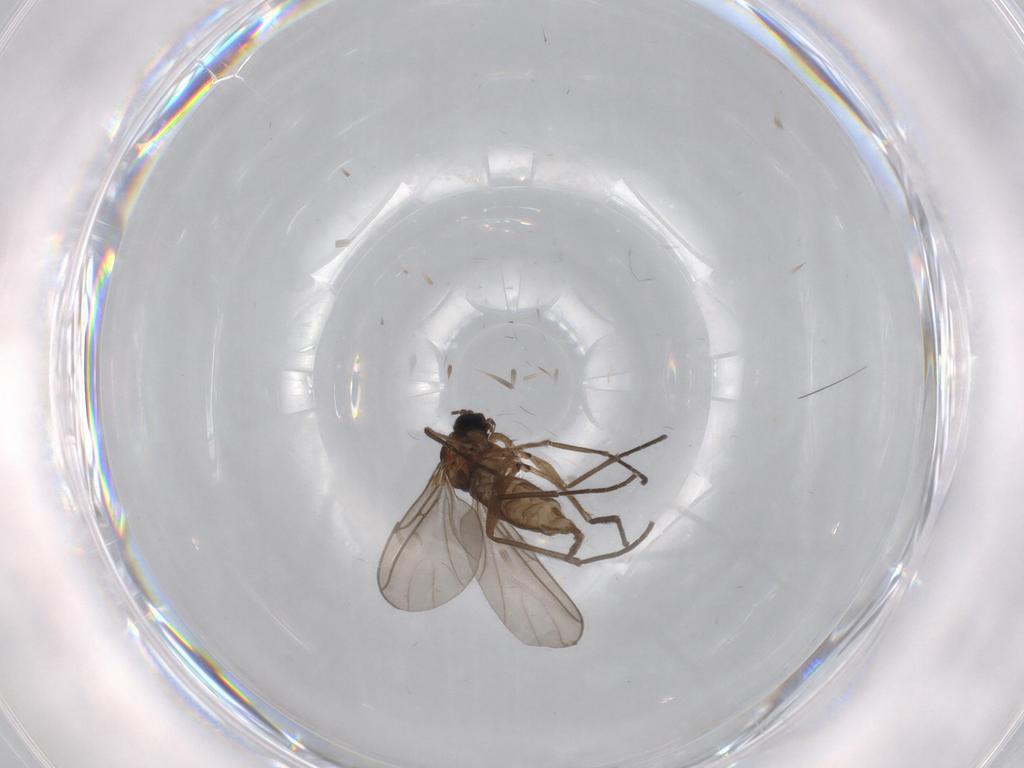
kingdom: Animalia
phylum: Arthropoda
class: Insecta
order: Diptera
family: Sciaridae
